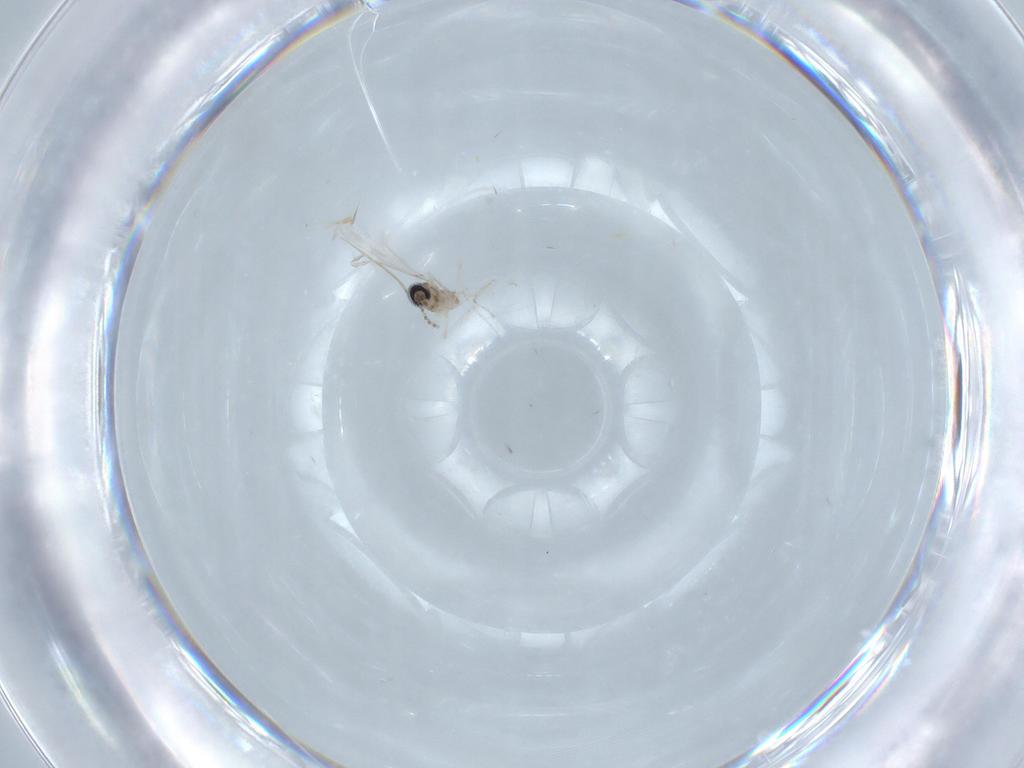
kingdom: Animalia
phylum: Arthropoda
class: Insecta
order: Diptera
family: Cecidomyiidae
